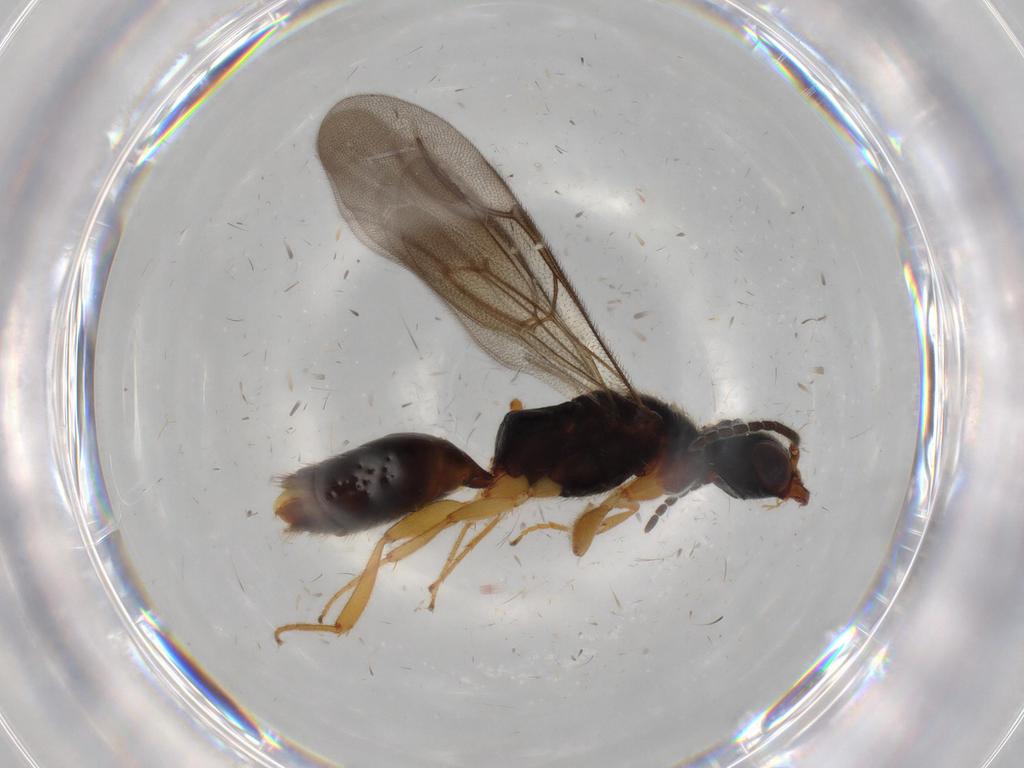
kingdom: Animalia
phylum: Arthropoda
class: Insecta
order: Hymenoptera
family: Bethylidae
